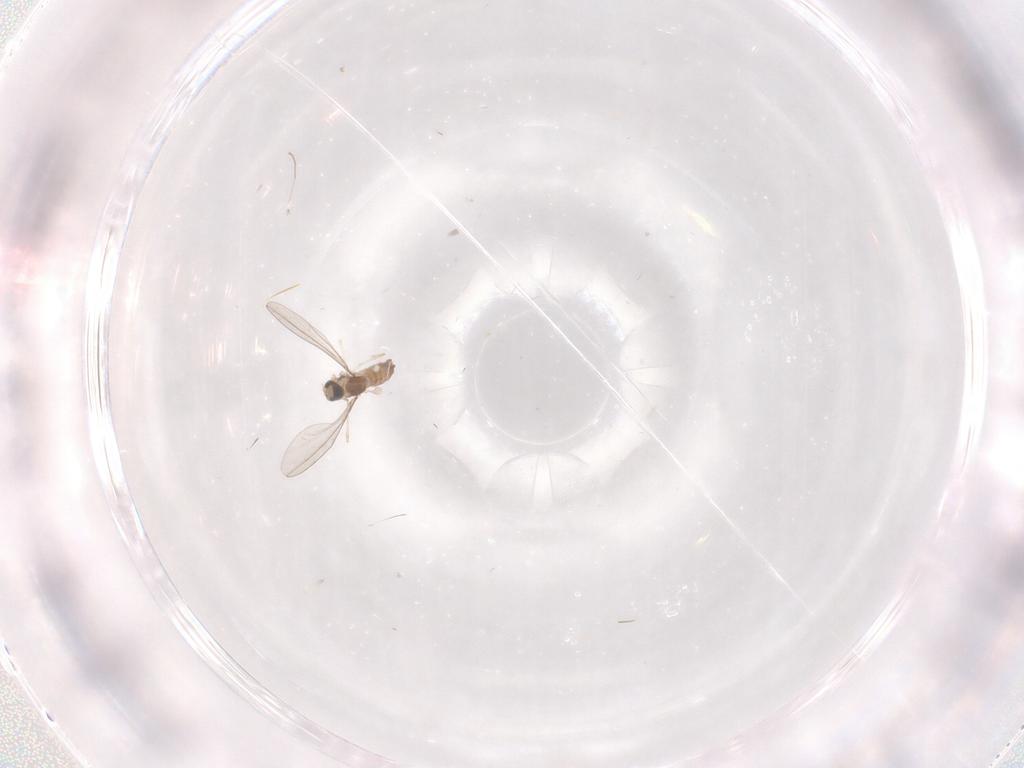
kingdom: Animalia
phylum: Arthropoda
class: Insecta
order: Diptera
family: Cecidomyiidae
